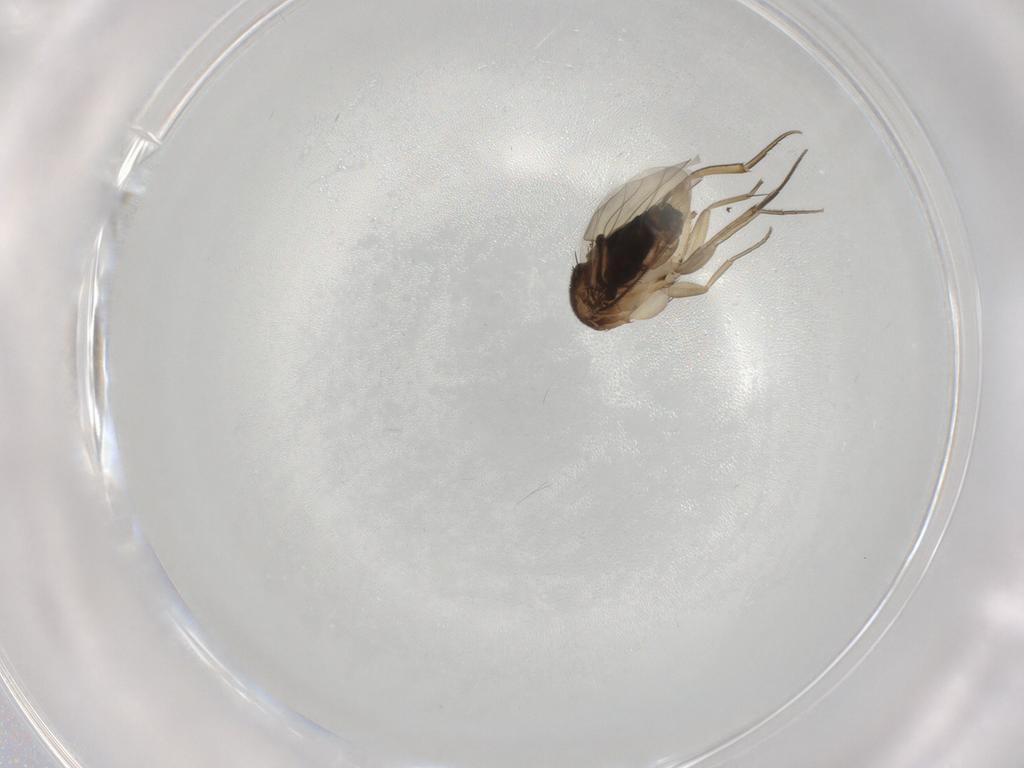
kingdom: Animalia
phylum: Arthropoda
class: Insecta
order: Diptera
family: Phoridae
